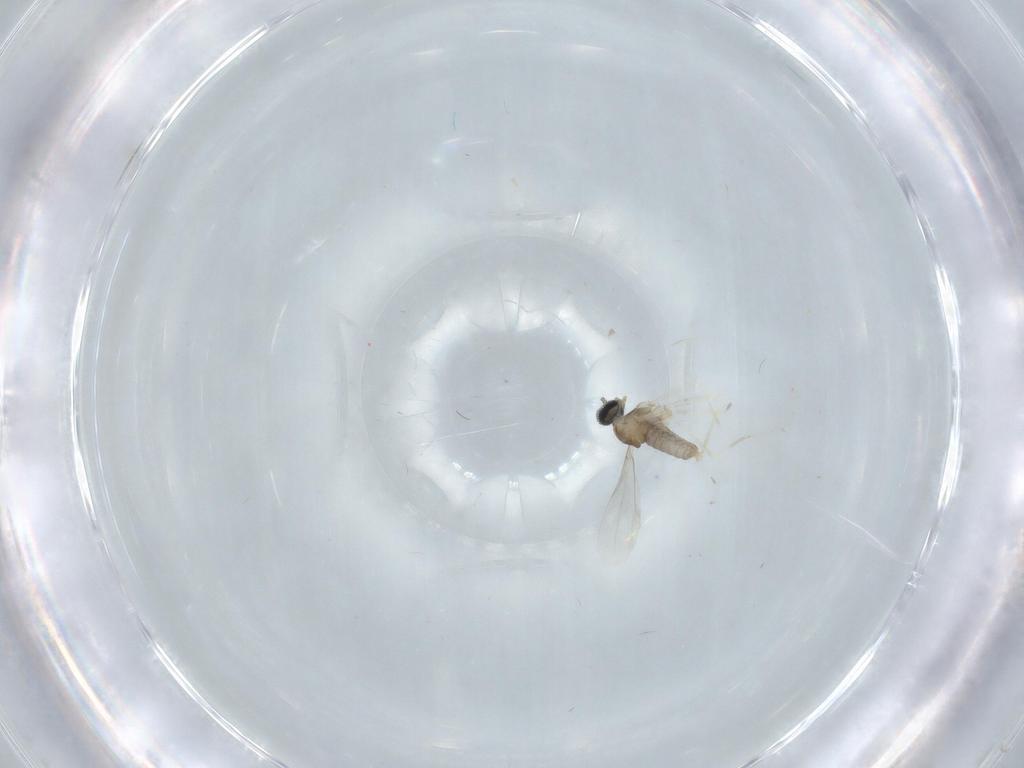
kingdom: Animalia
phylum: Arthropoda
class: Insecta
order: Diptera
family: Cecidomyiidae
